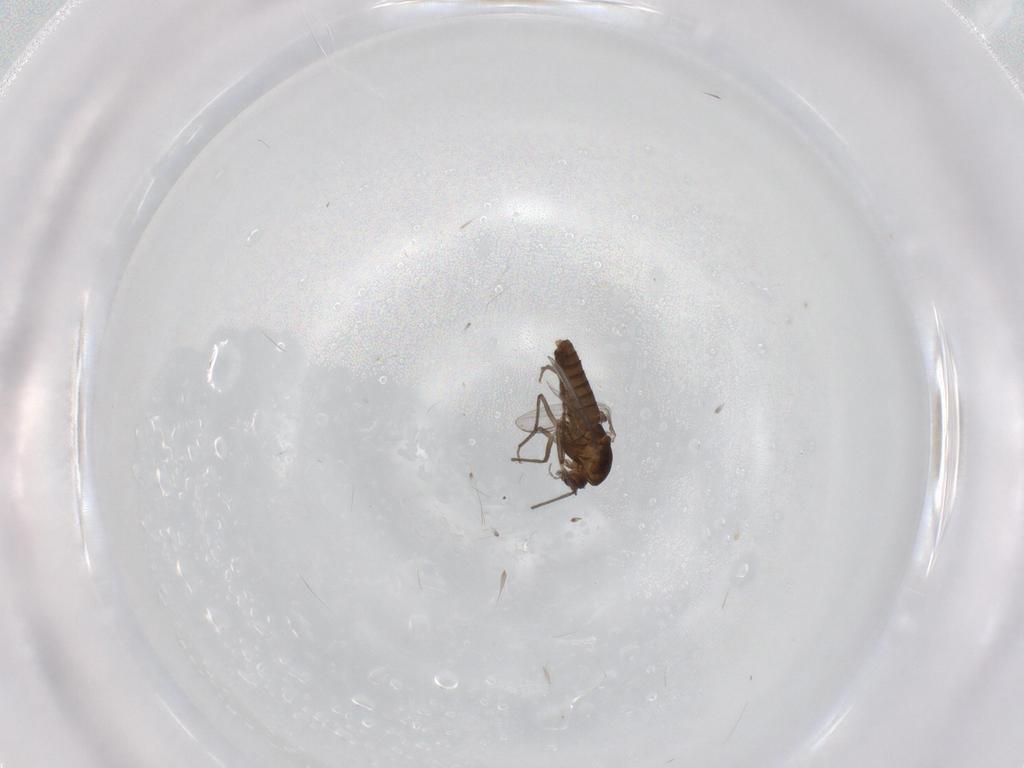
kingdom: Animalia
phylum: Arthropoda
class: Insecta
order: Diptera
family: Chironomidae
